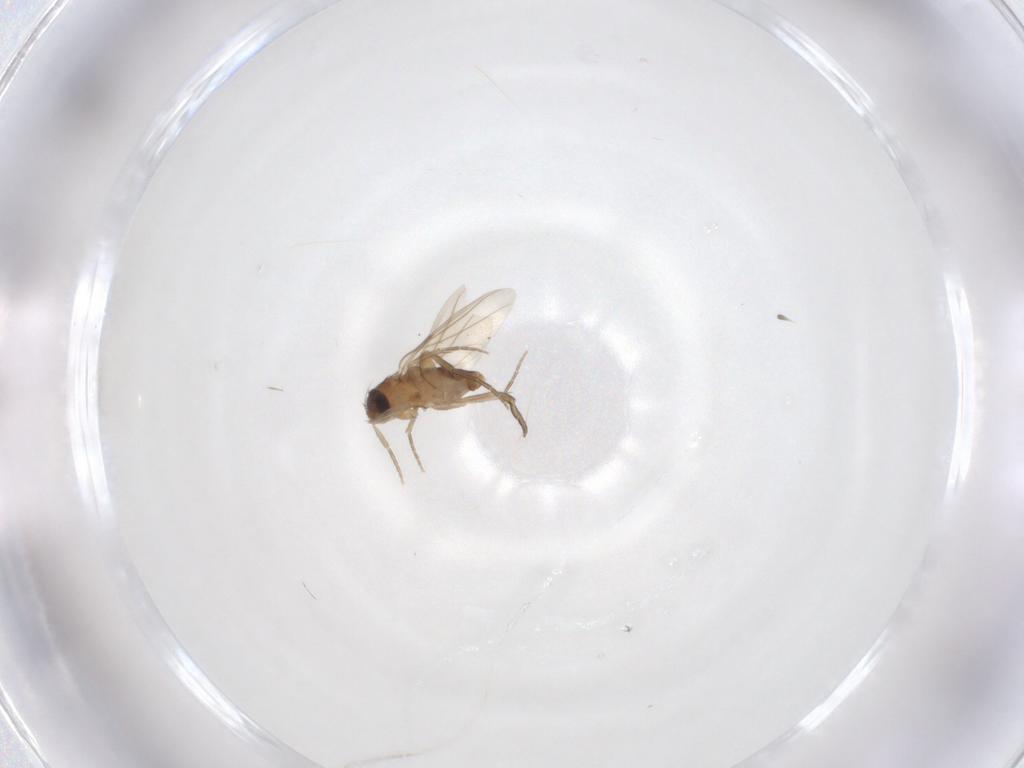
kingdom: Animalia
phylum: Arthropoda
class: Insecta
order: Diptera
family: Phoridae
